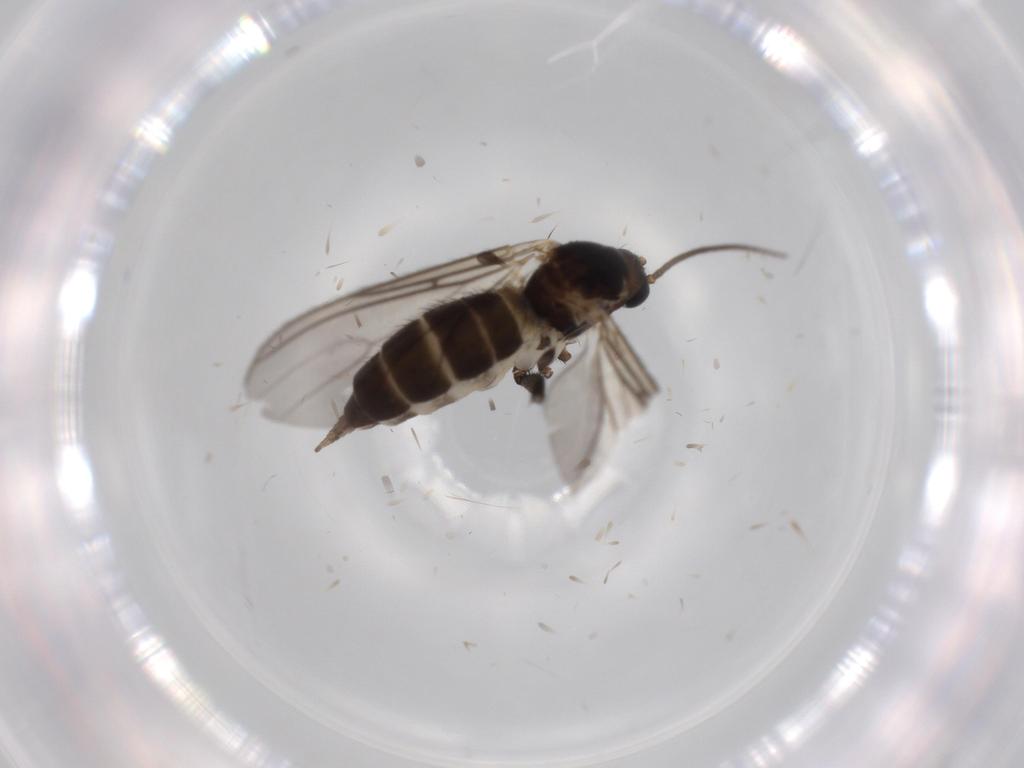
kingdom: Animalia
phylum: Arthropoda
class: Insecta
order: Diptera
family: Sciaridae
